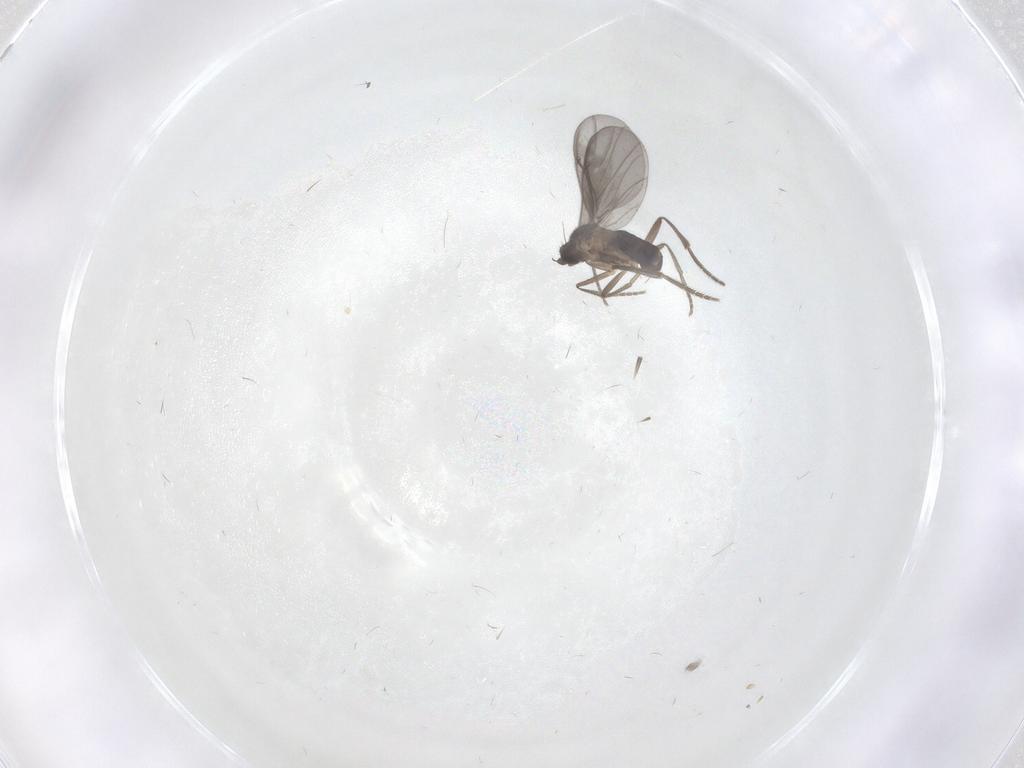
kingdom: Animalia
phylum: Arthropoda
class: Insecta
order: Diptera
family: Phoridae
